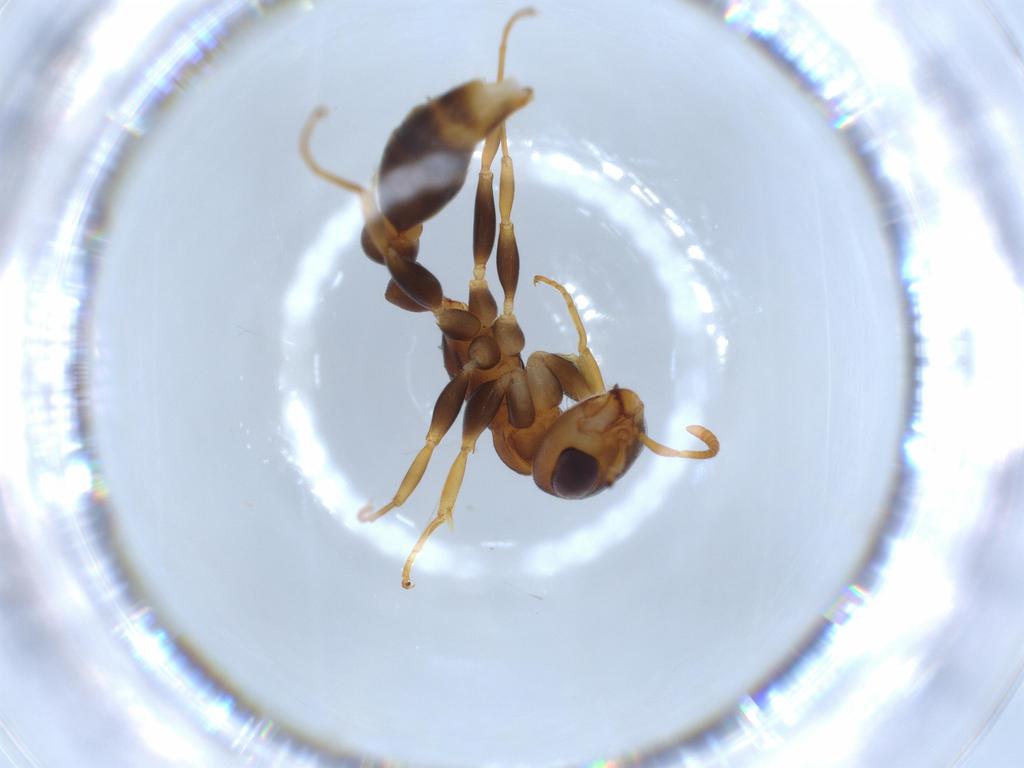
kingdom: Animalia
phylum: Arthropoda
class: Insecta
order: Hymenoptera
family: Formicidae
